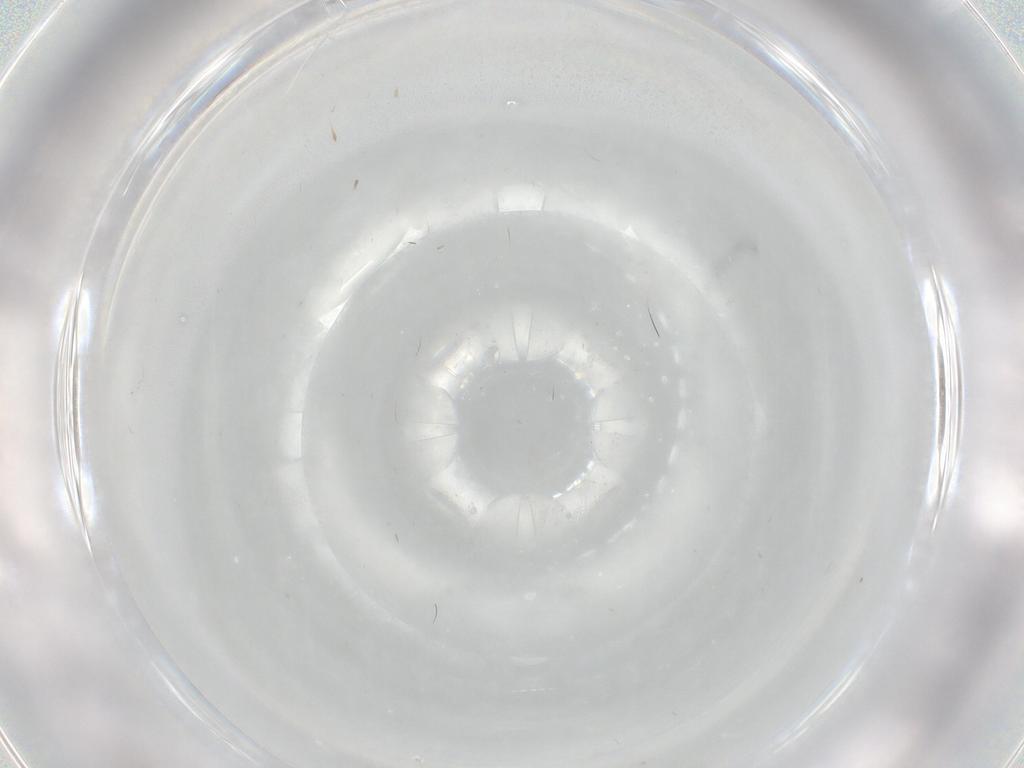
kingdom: Animalia
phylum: Arthropoda
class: Insecta
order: Diptera
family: Cecidomyiidae
